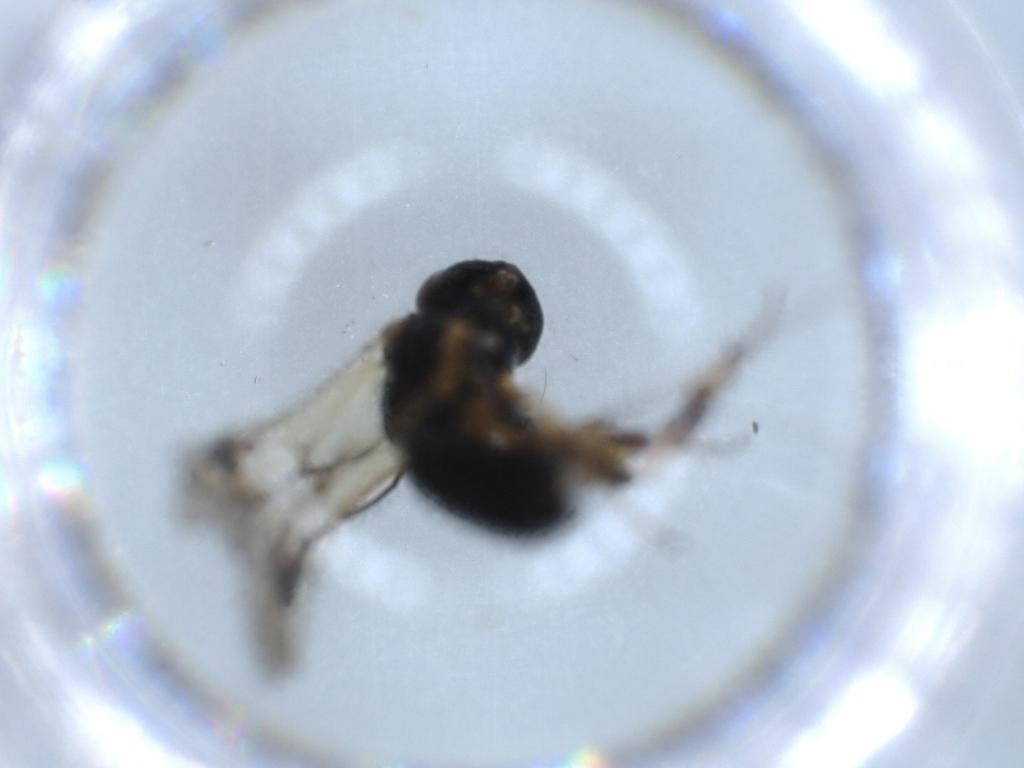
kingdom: Animalia
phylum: Arthropoda
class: Insecta
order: Hymenoptera
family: Braconidae
